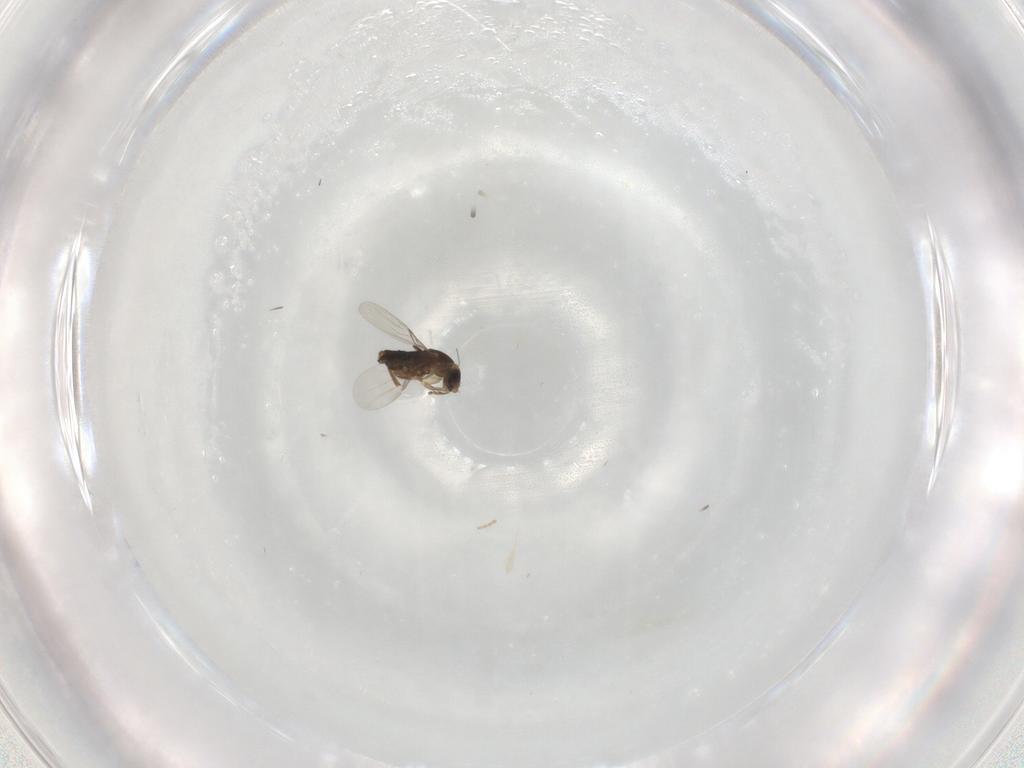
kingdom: Animalia
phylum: Arthropoda
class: Insecta
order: Diptera
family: Phoridae
